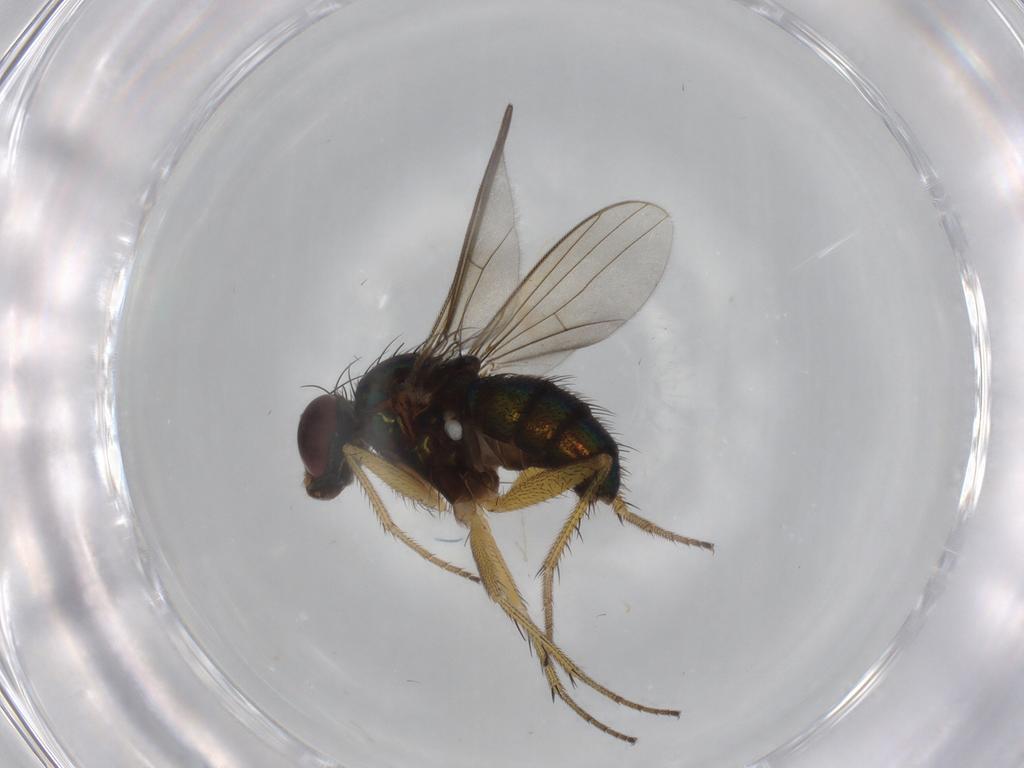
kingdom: Animalia
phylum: Arthropoda
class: Insecta
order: Diptera
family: Dolichopodidae
